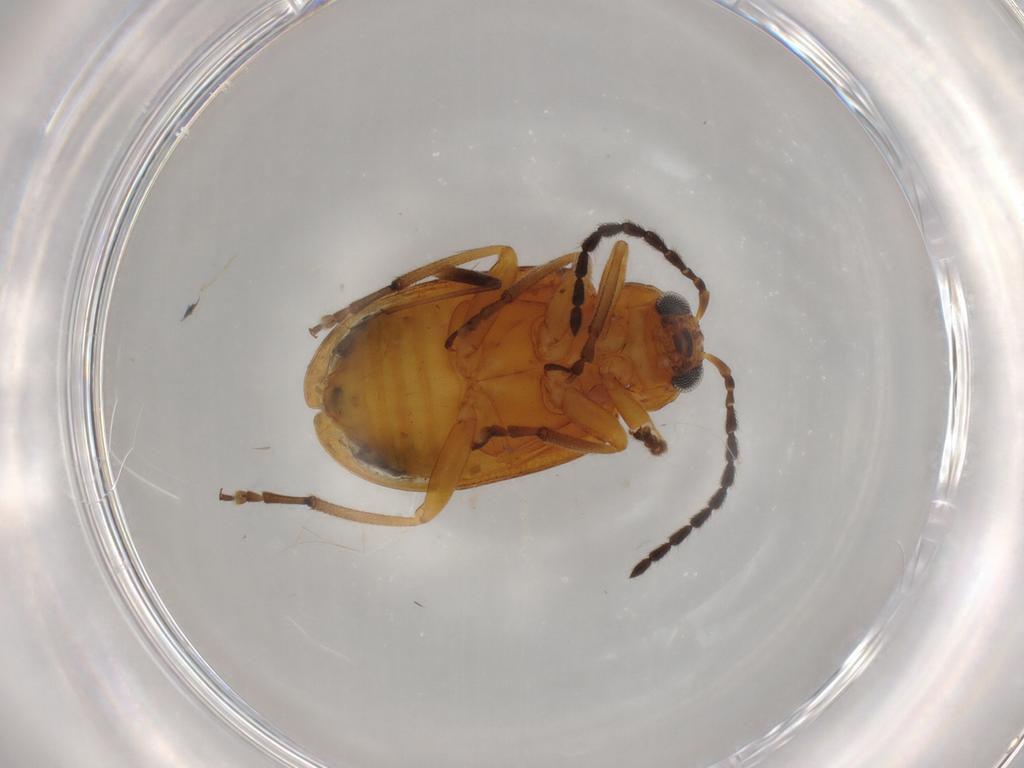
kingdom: Animalia
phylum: Arthropoda
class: Insecta
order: Coleoptera
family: Chrysomelidae
